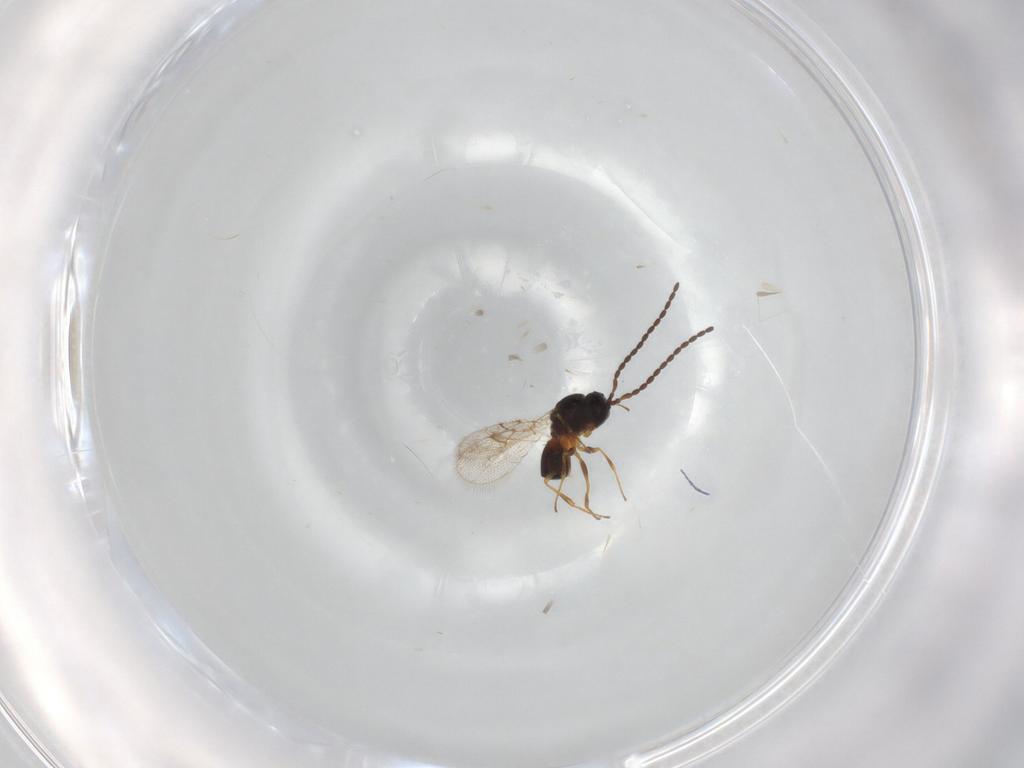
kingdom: Animalia
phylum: Arthropoda
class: Insecta
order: Hymenoptera
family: Figitidae
